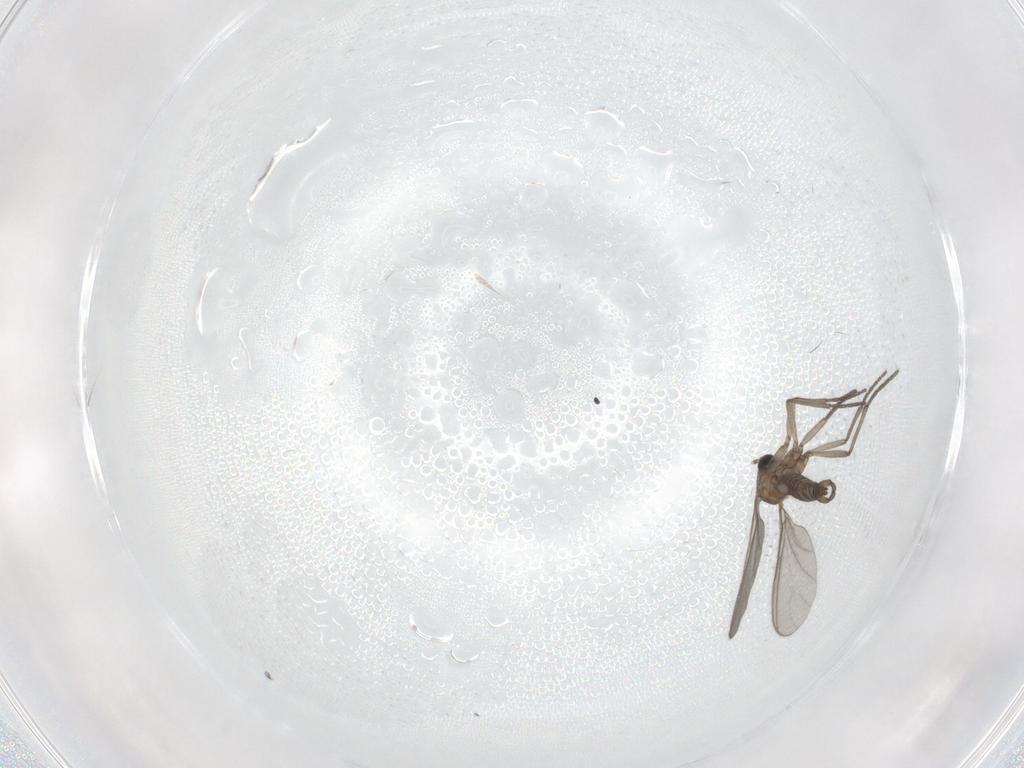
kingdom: Animalia
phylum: Arthropoda
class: Insecta
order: Diptera
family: Sciaridae
